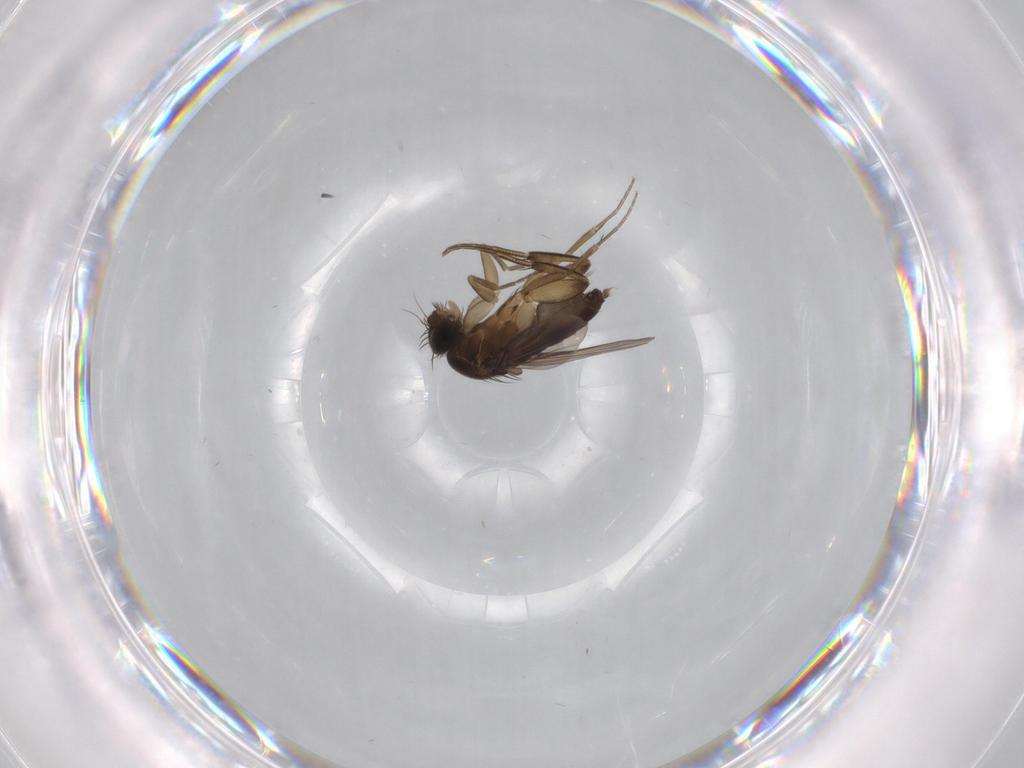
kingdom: Animalia
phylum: Arthropoda
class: Insecta
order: Diptera
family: Phoridae
